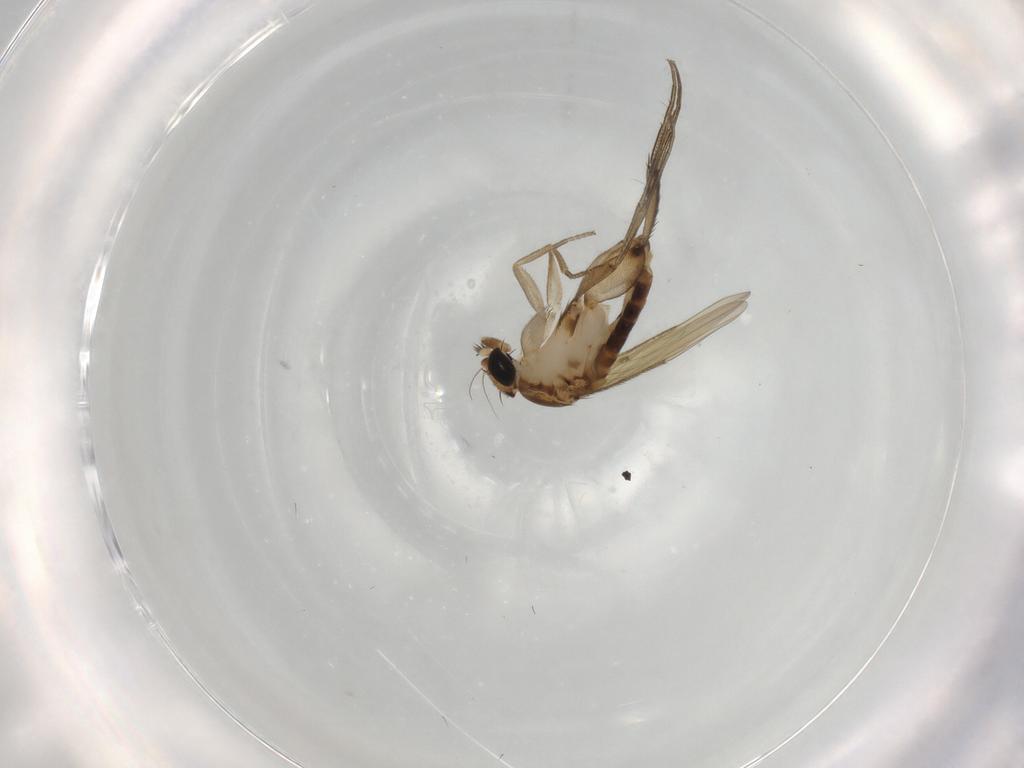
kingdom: Animalia
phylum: Arthropoda
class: Insecta
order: Diptera
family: Phoridae
